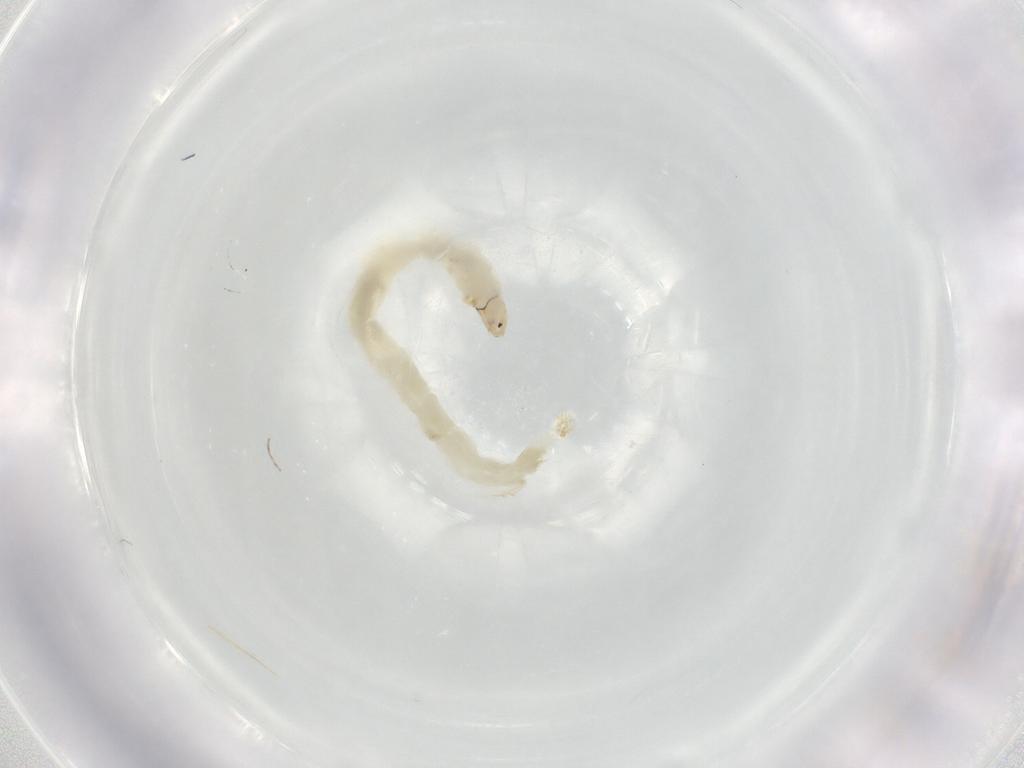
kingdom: Animalia
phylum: Arthropoda
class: Insecta
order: Diptera
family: Chironomidae
